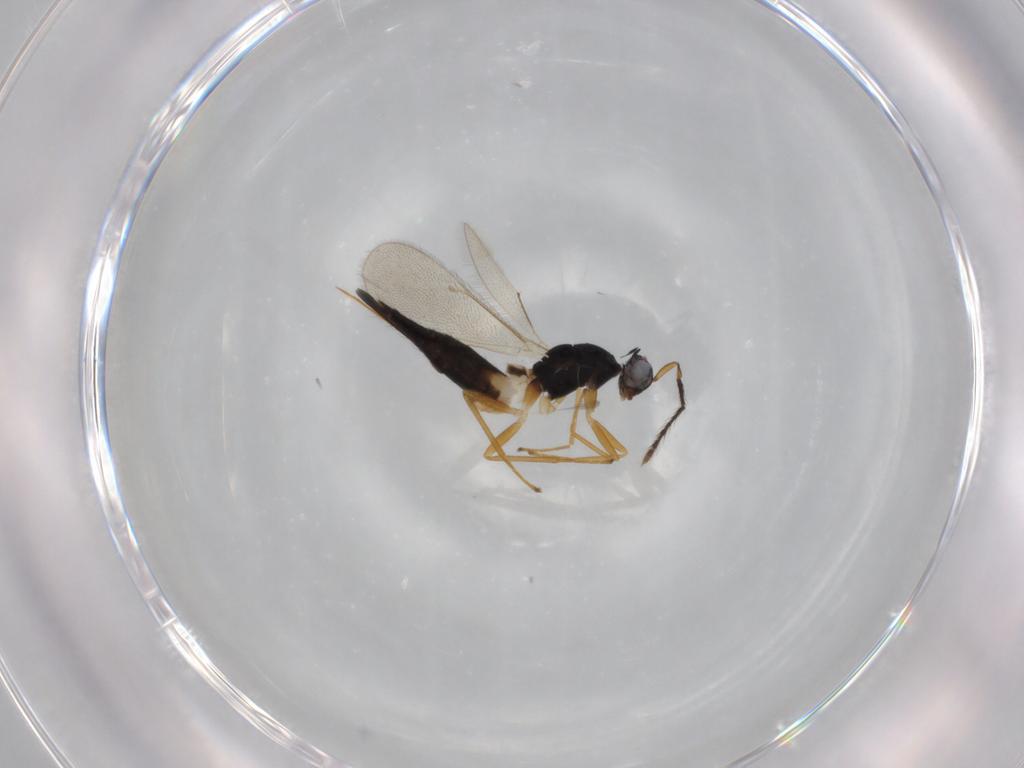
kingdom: Animalia
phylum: Arthropoda
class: Insecta
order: Hymenoptera
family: Eulophidae
